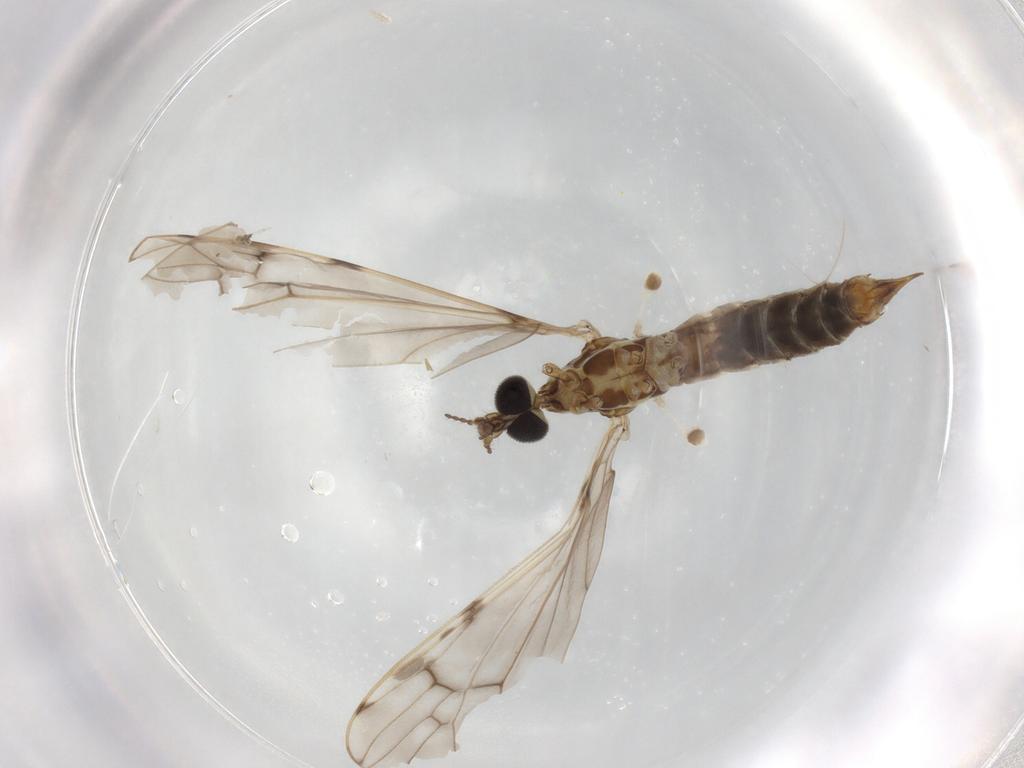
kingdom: Animalia
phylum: Arthropoda
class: Insecta
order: Diptera
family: Limoniidae
